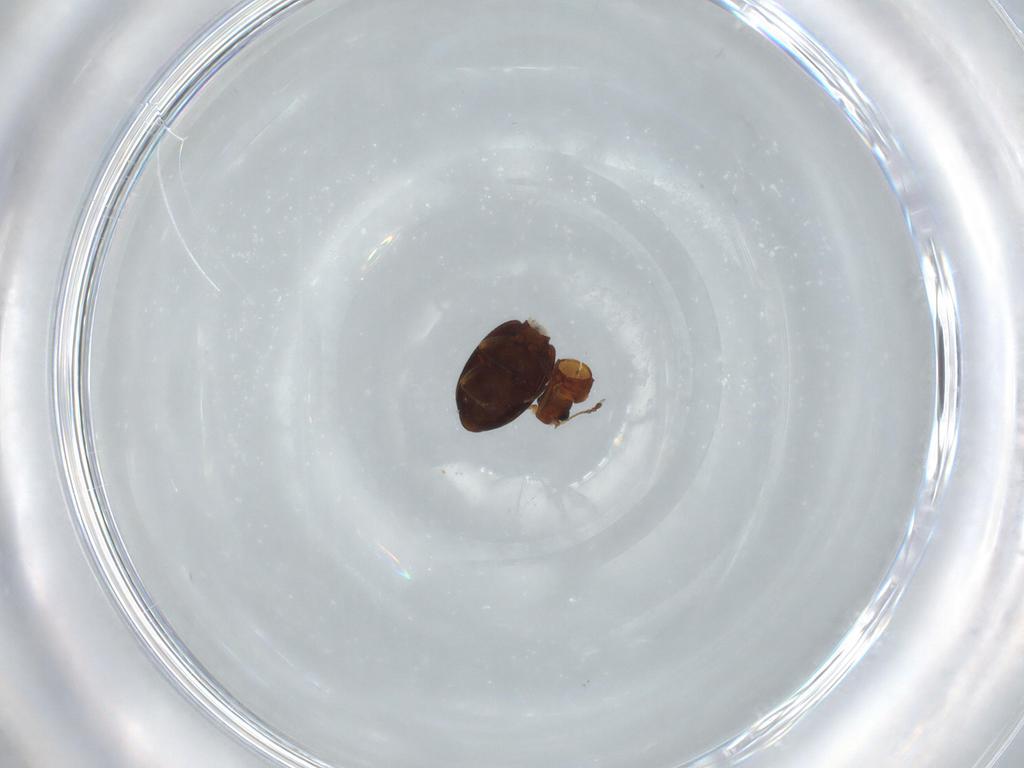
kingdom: Animalia
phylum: Arthropoda
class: Insecta
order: Coleoptera
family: Latridiidae
